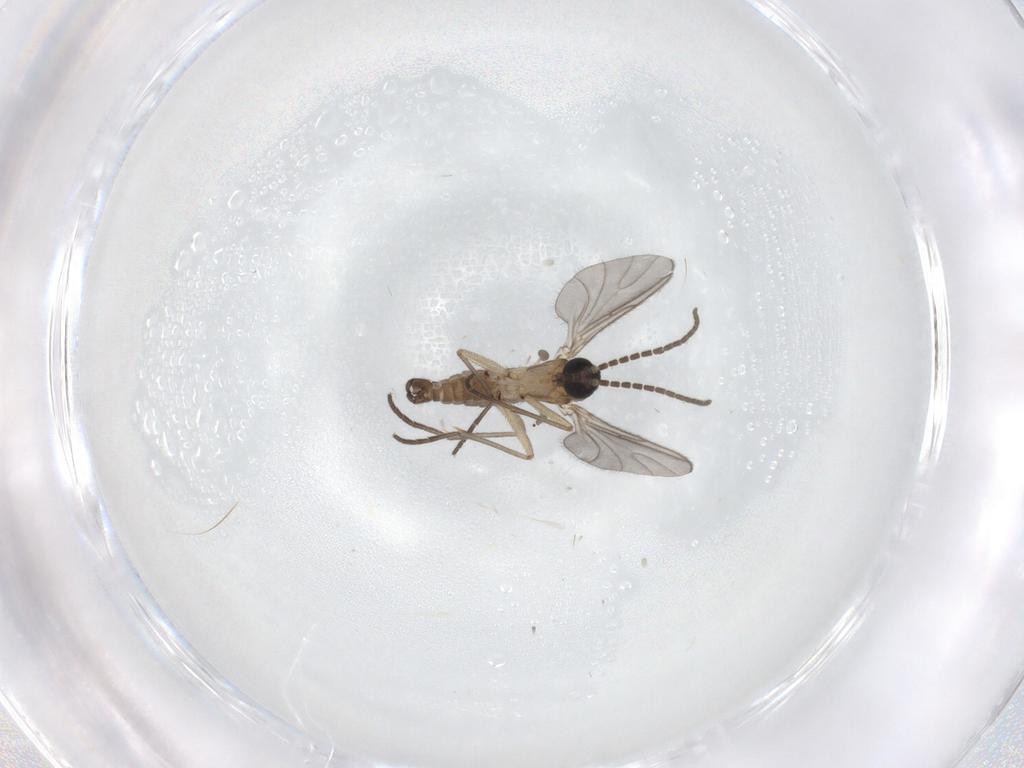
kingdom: Animalia
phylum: Arthropoda
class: Insecta
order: Diptera
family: Sciaridae
